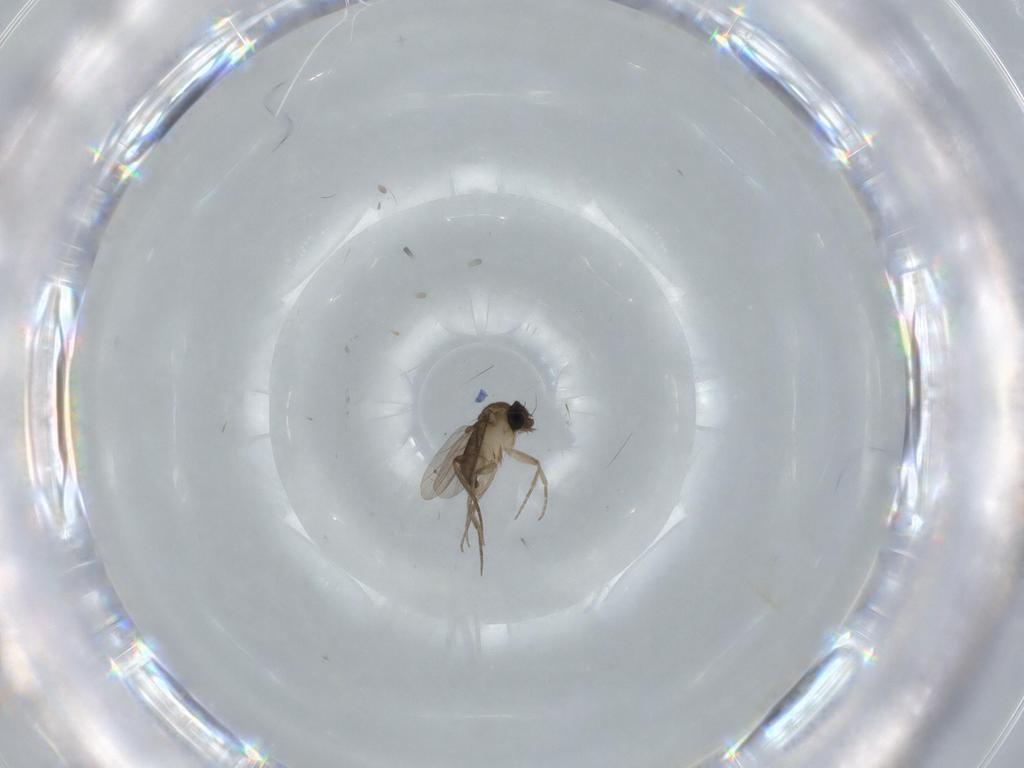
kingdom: Animalia
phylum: Arthropoda
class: Insecta
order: Diptera
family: Phoridae
